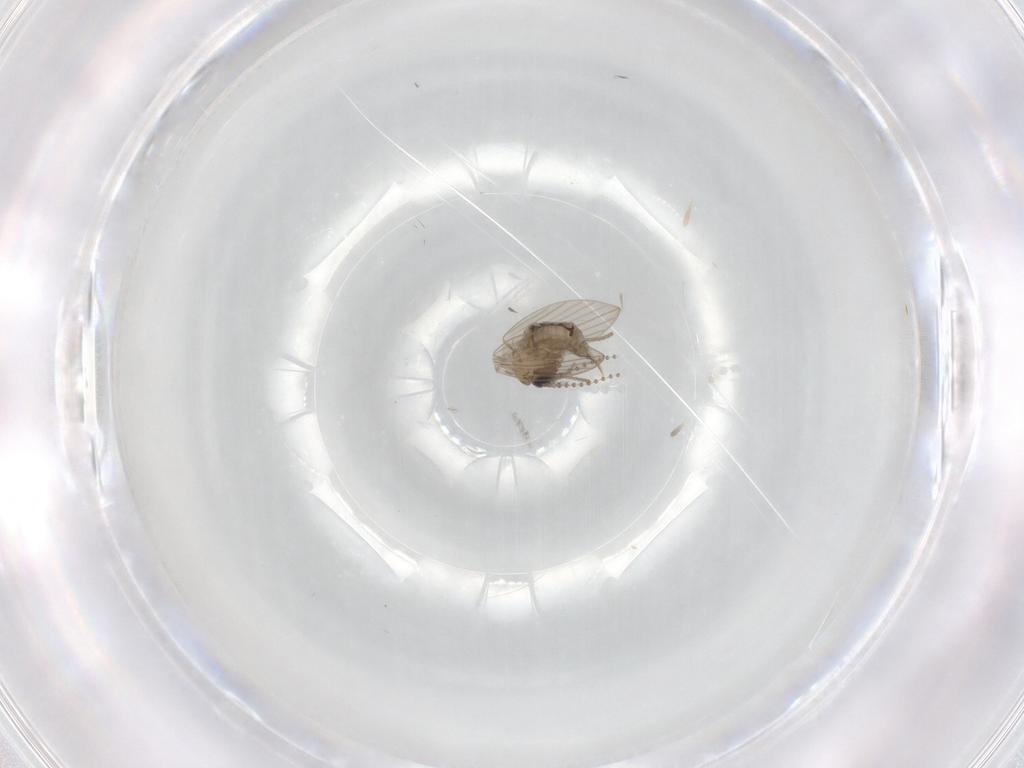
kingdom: Animalia
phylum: Arthropoda
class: Insecta
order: Diptera
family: Psychodidae
